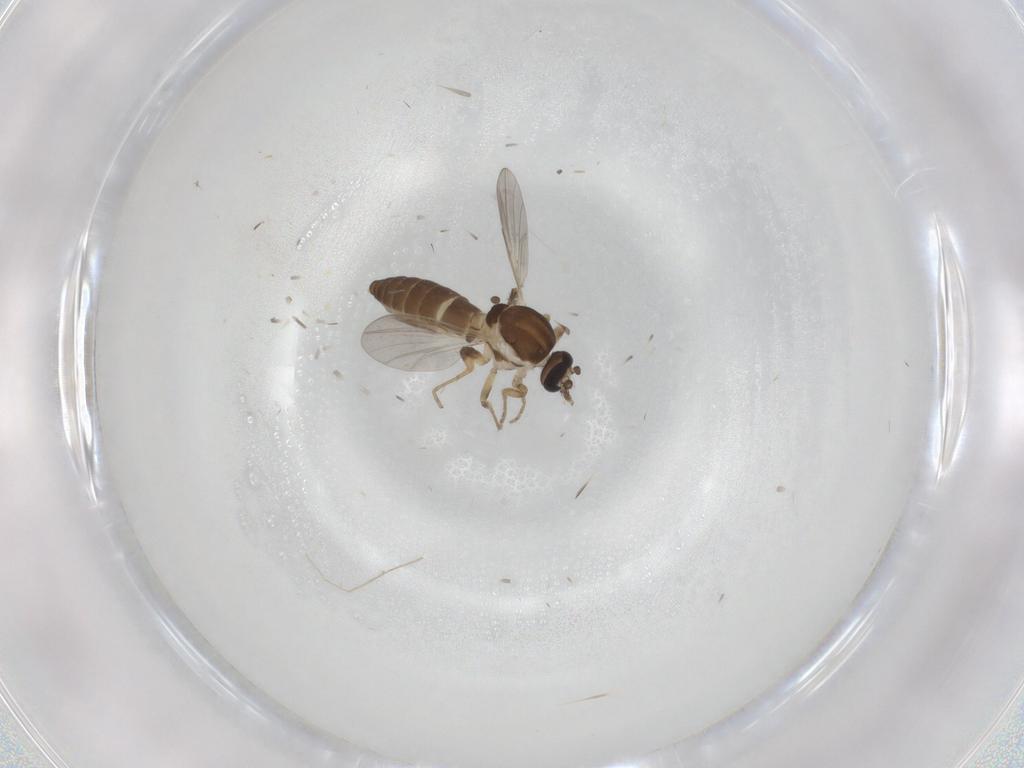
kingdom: Animalia
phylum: Arthropoda
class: Insecta
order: Diptera
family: Ceratopogonidae
